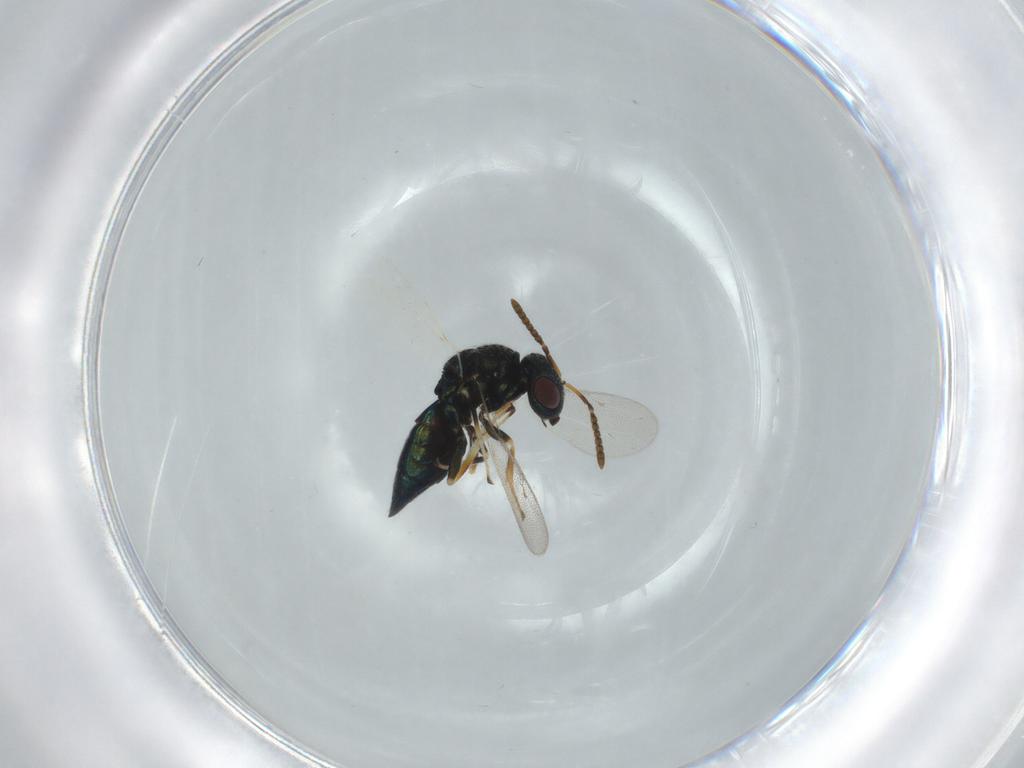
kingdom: Animalia
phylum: Arthropoda
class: Insecta
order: Hymenoptera
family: Pteromalidae
